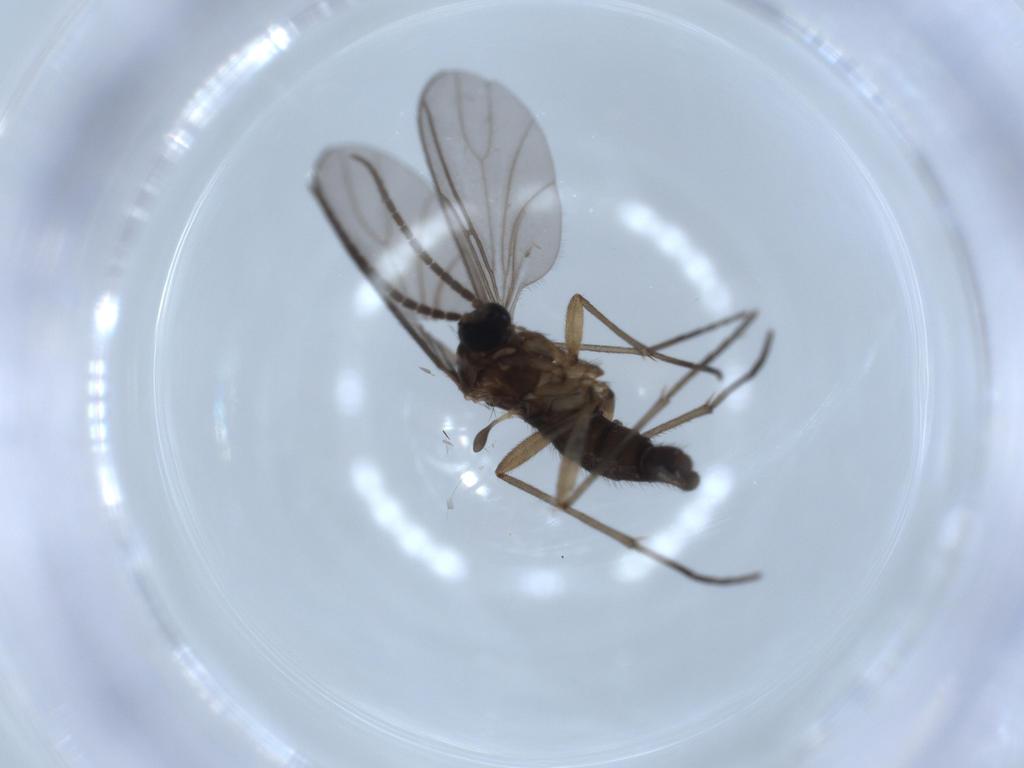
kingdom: Animalia
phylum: Arthropoda
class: Insecta
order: Diptera
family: Sciaridae
